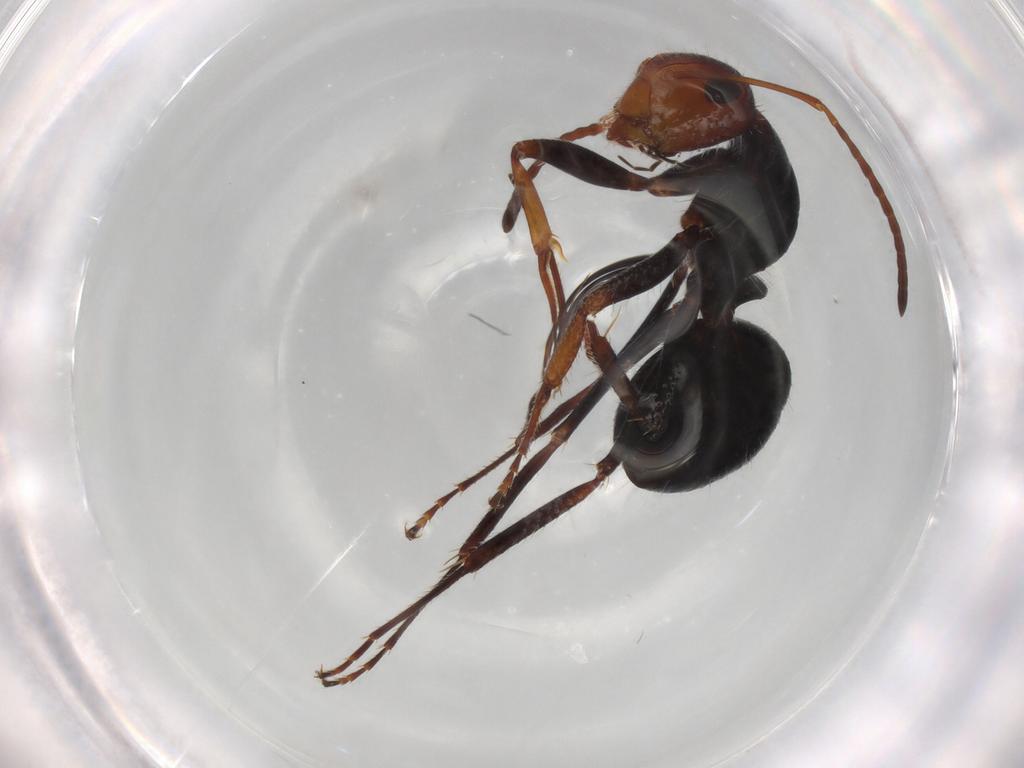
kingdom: Animalia
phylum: Arthropoda
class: Insecta
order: Hymenoptera
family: Formicidae
